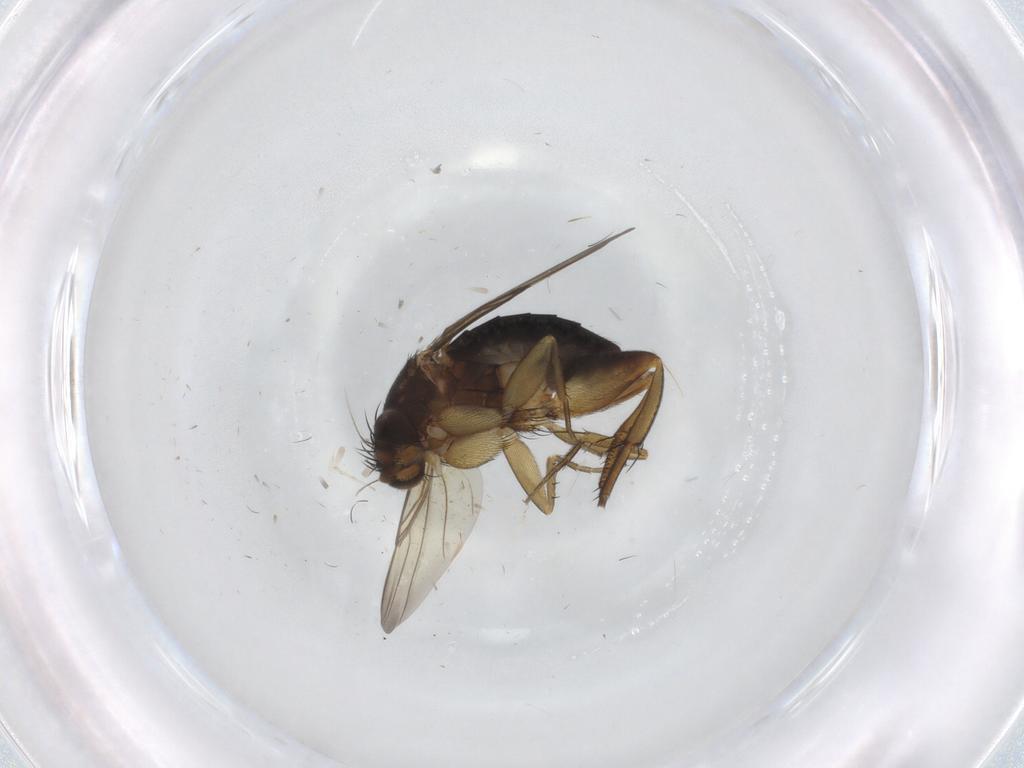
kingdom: Animalia
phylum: Arthropoda
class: Insecta
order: Diptera
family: Phoridae
